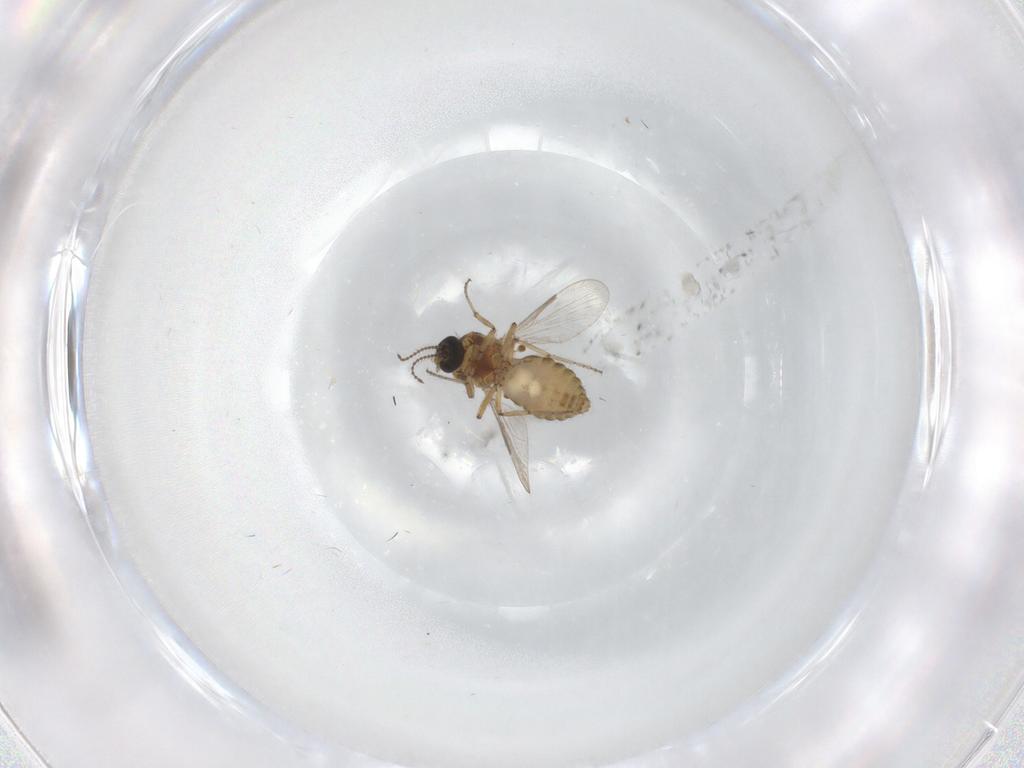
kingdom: Animalia
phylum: Arthropoda
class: Insecta
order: Diptera
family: Ceratopogonidae
